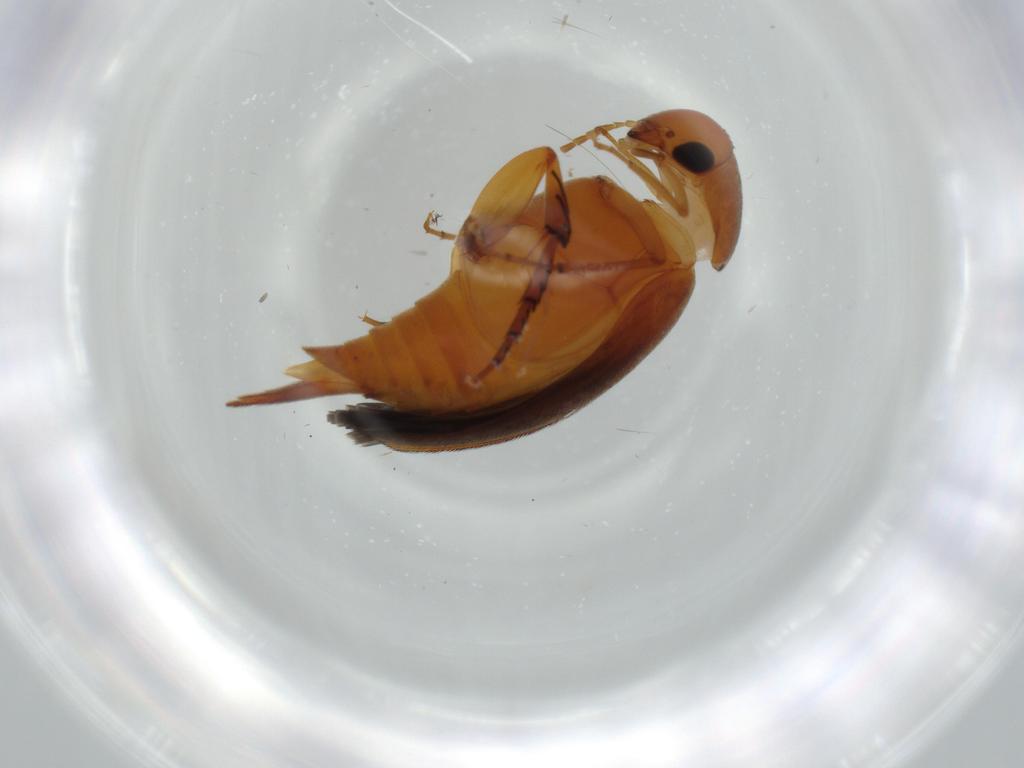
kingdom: Animalia
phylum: Arthropoda
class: Insecta
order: Coleoptera
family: Mordellidae
